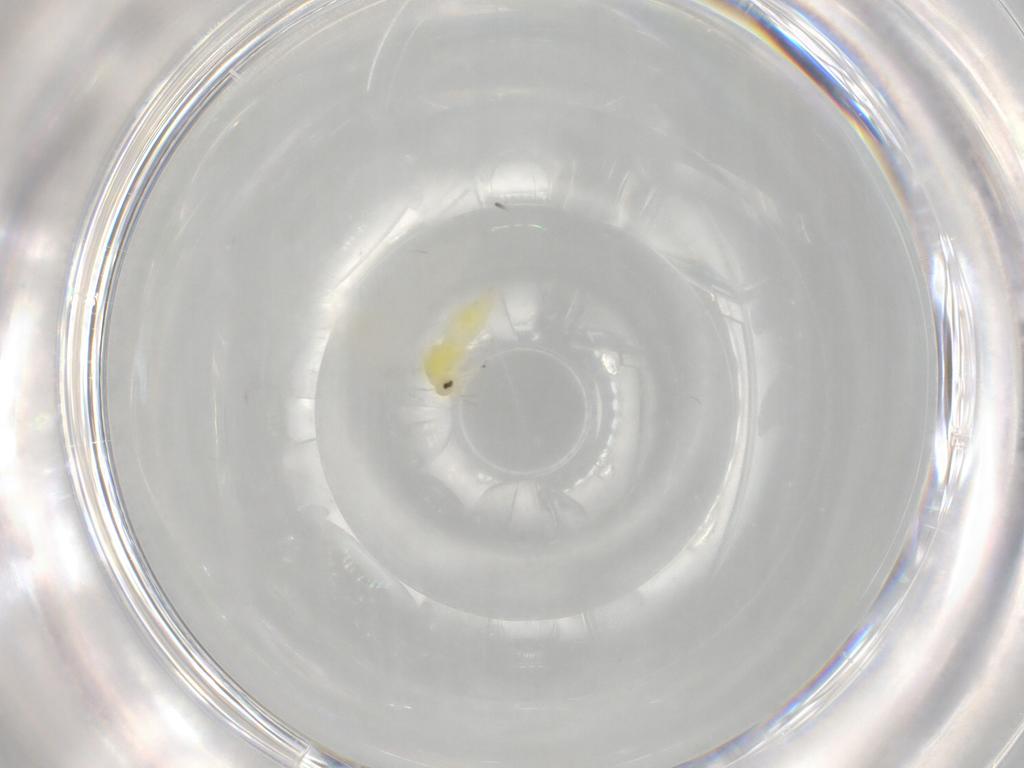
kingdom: Animalia
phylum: Arthropoda
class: Insecta
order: Hemiptera
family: Aleyrodidae
